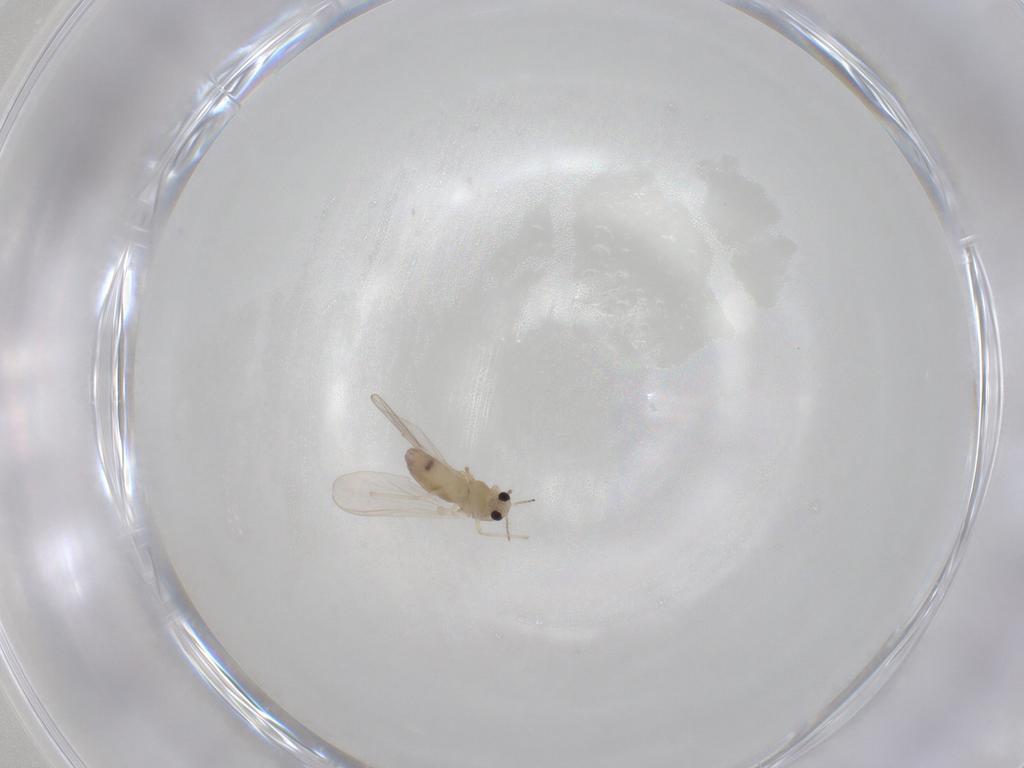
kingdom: Animalia
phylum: Arthropoda
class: Insecta
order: Diptera
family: Chironomidae
